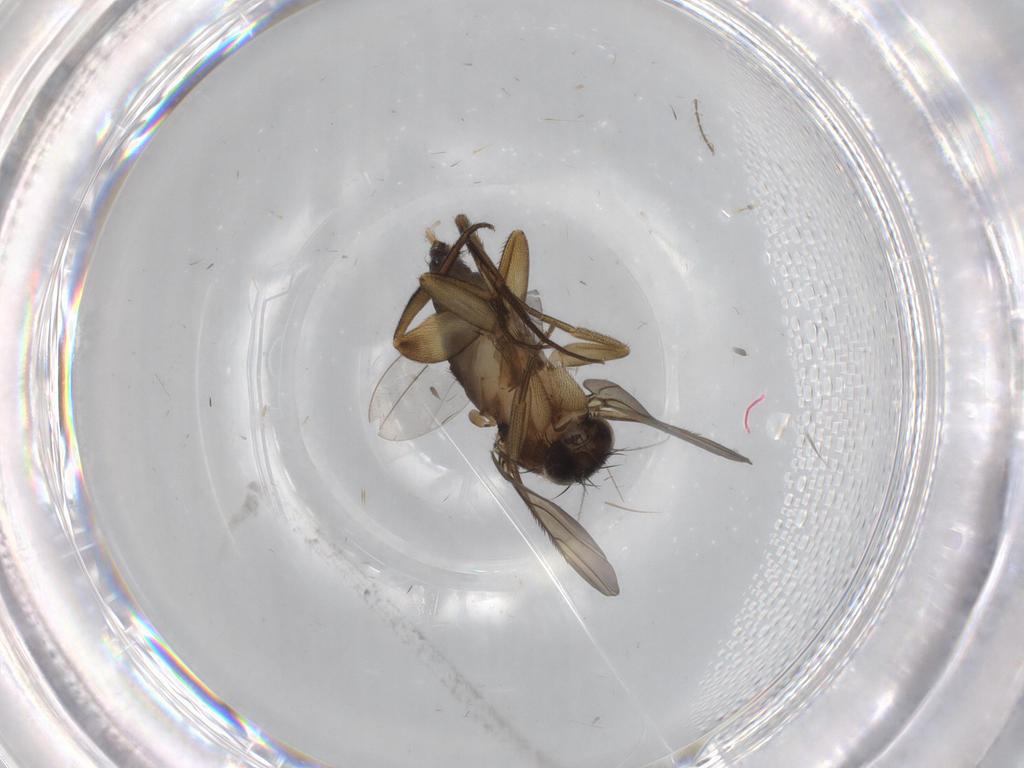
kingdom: Animalia
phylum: Arthropoda
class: Insecta
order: Diptera
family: Phoridae
